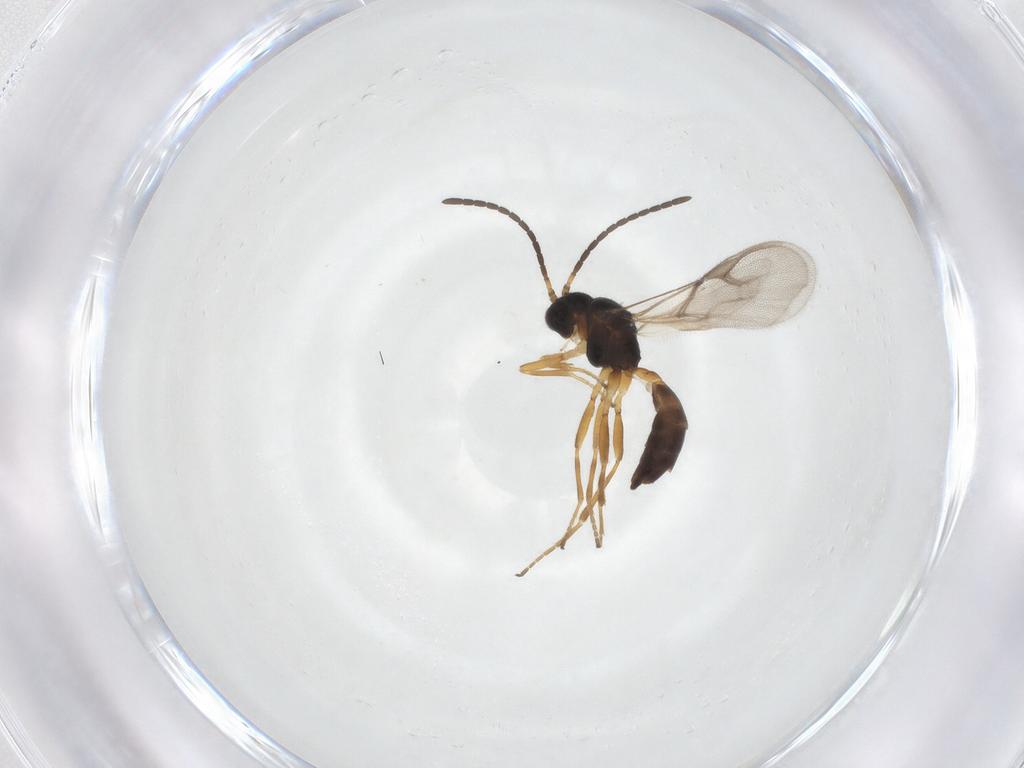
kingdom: Animalia
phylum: Arthropoda
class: Insecta
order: Hymenoptera
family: Braconidae
